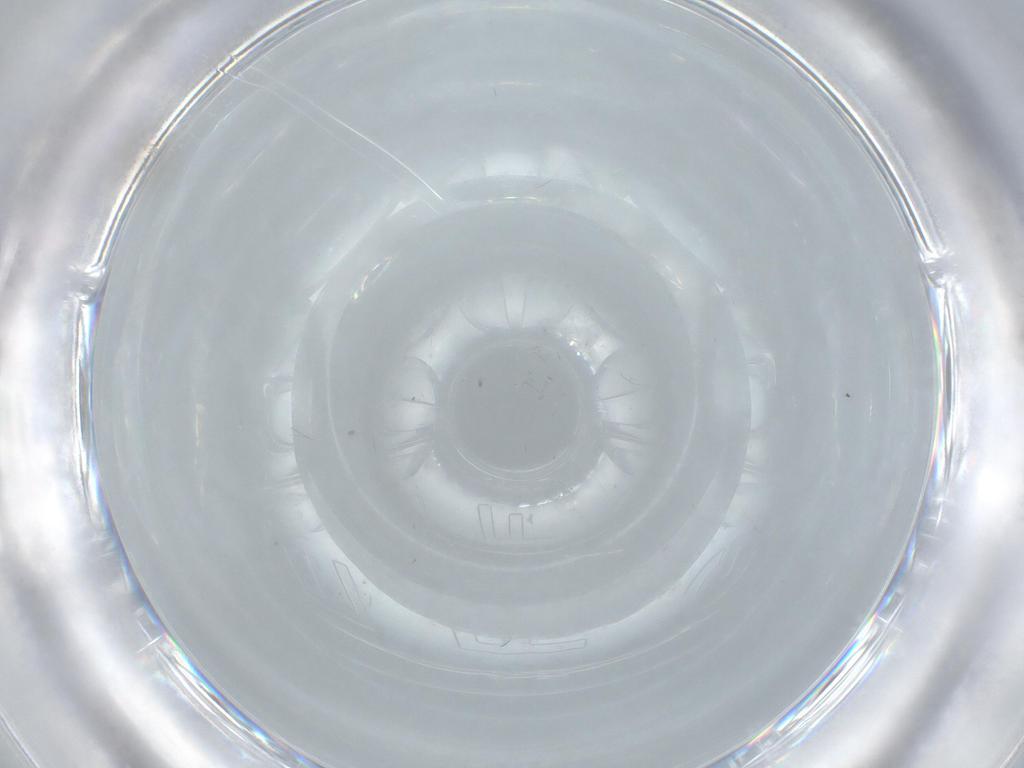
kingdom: Animalia
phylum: Arthropoda
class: Insecta
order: Diptera
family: Phoridae
